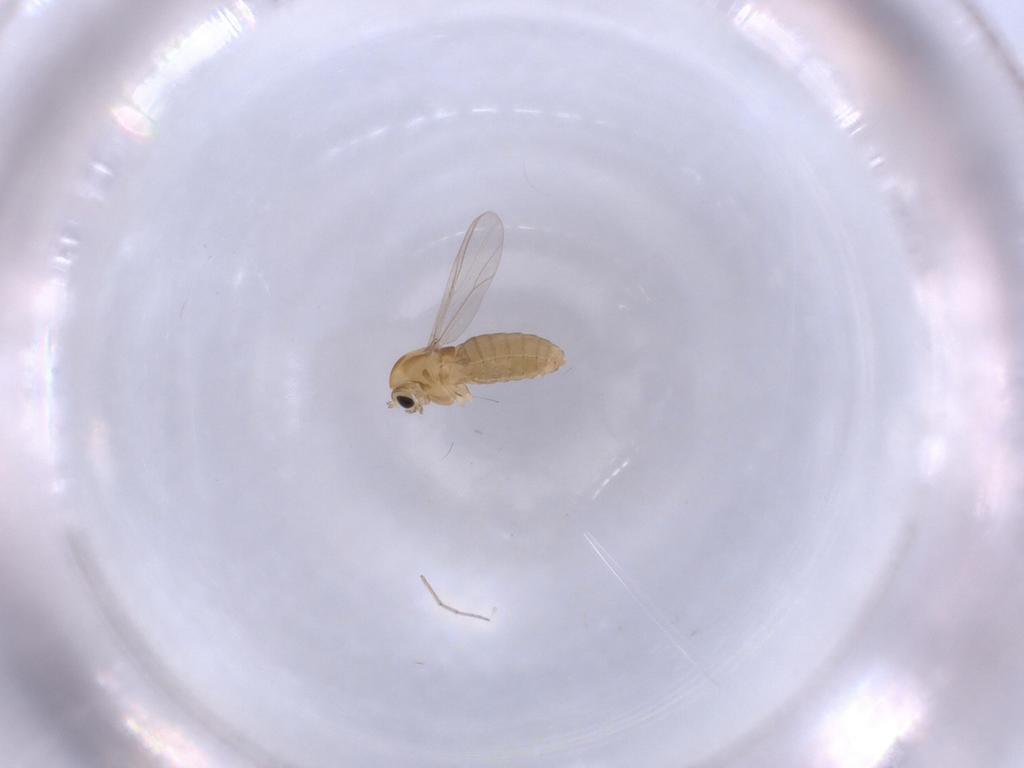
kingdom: Animalia
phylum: Arthropoda
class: Insecta
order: Diptera
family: Chironomidae
